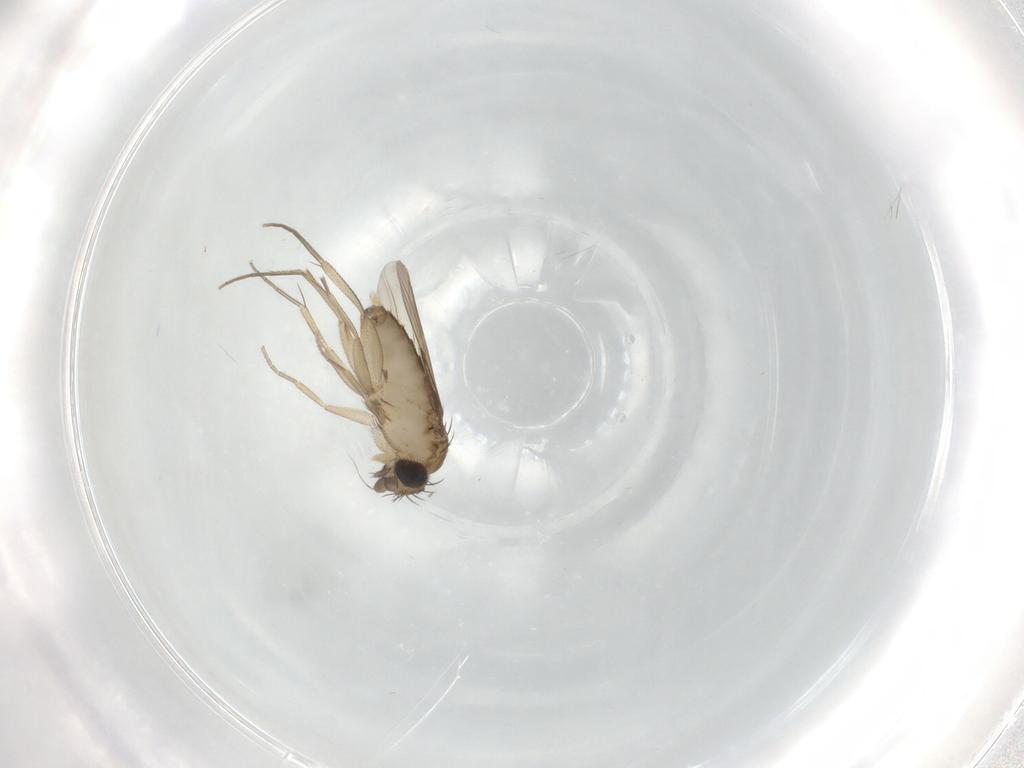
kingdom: Animalia
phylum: Arthropoda
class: Insecta
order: Diptera
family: Phoridae
